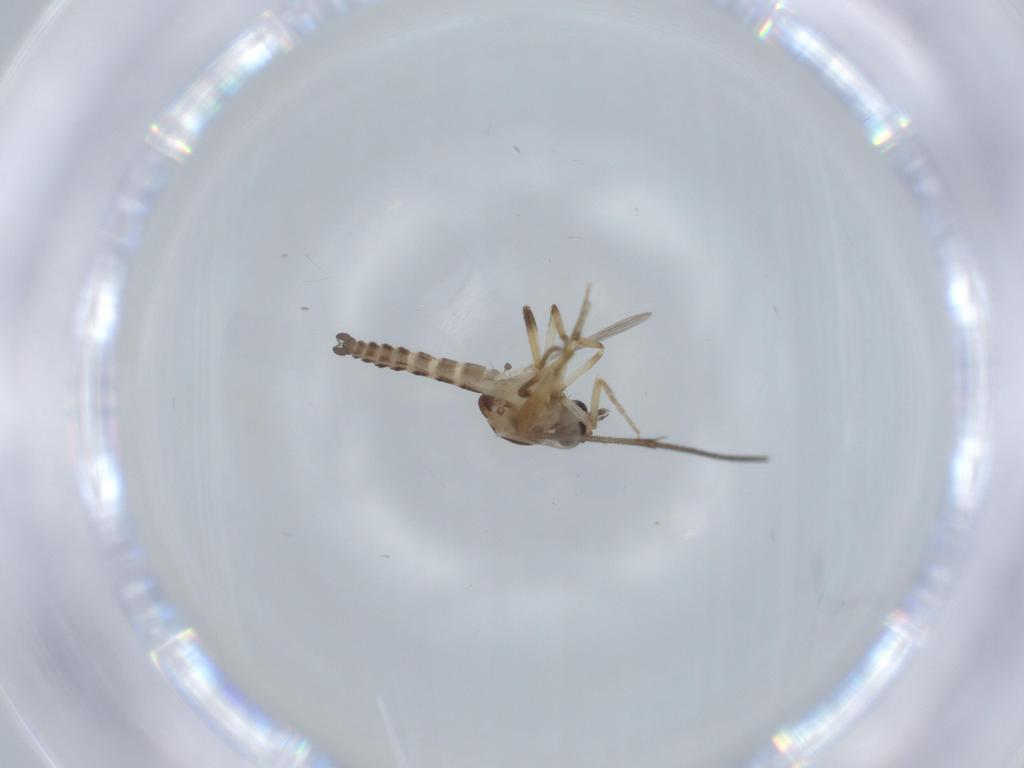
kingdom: Animalia
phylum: Arthropoda
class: Insecta
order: Diptera
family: Ceratopogonidae
